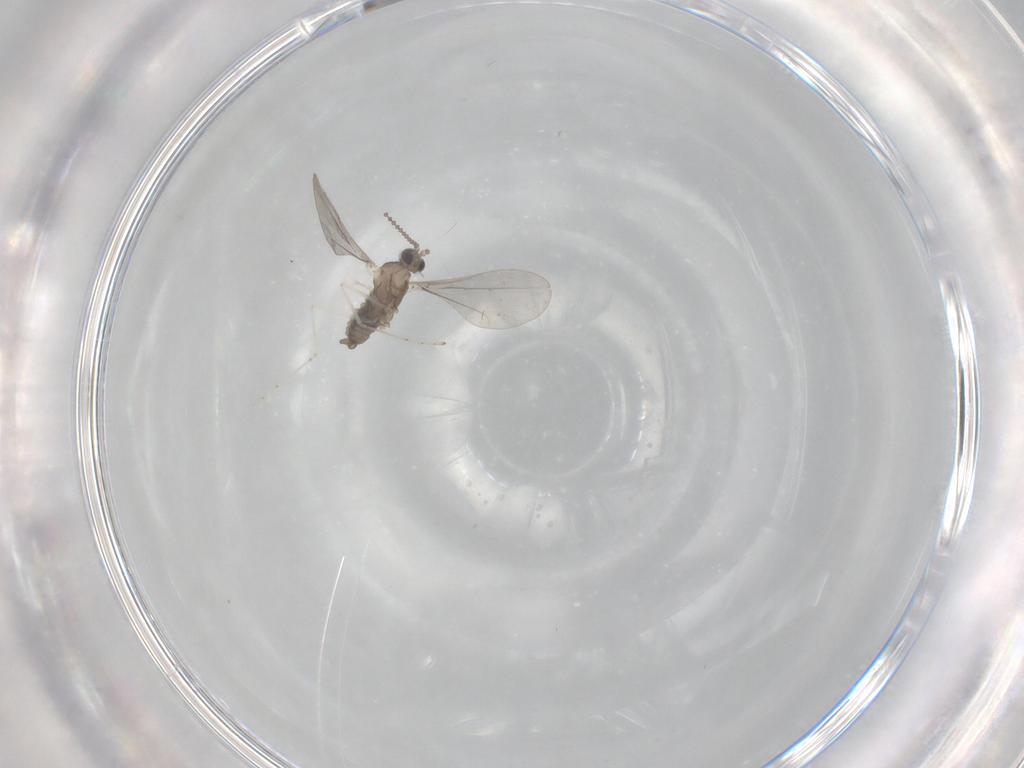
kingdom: Animalia
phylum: Arthropoda
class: Insecta
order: Diptera
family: Cecidomyiidae
